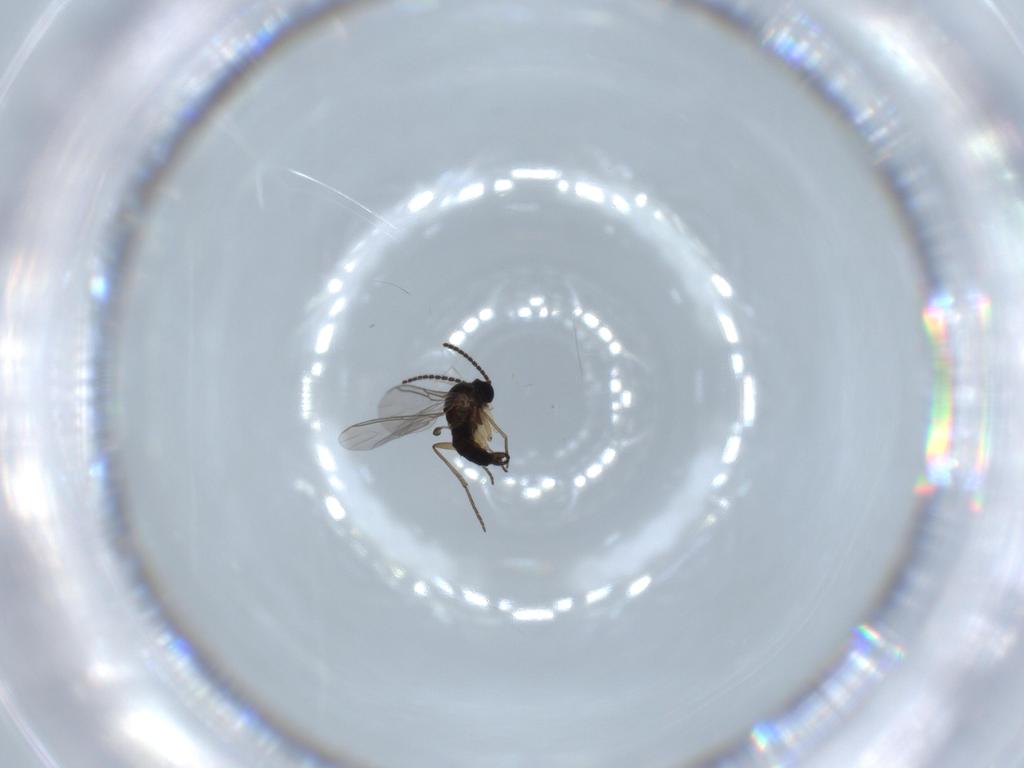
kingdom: Animalia
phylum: Arthropoda
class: Insecta
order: Diptera
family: Sciaridae
